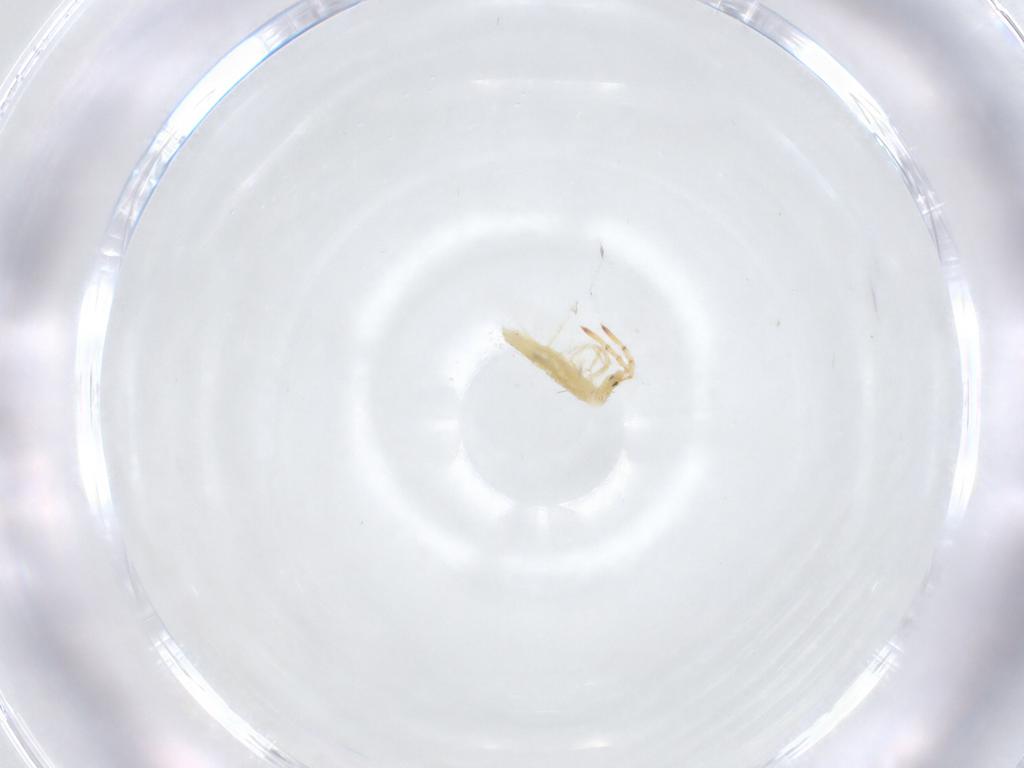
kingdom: Animalia
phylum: Arthropoda
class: Collembola
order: Entomobryomorpha
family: Entomobryidae
